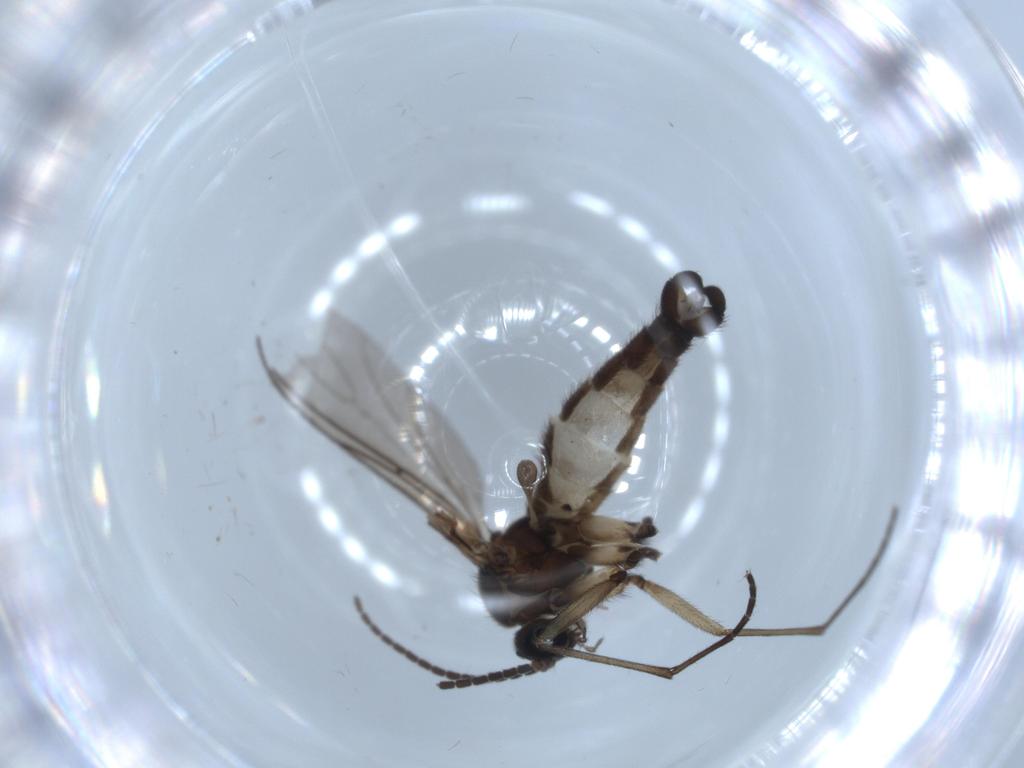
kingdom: Animalia
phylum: Arthropoda
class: Insecta
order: Diptera
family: Sciaridae
